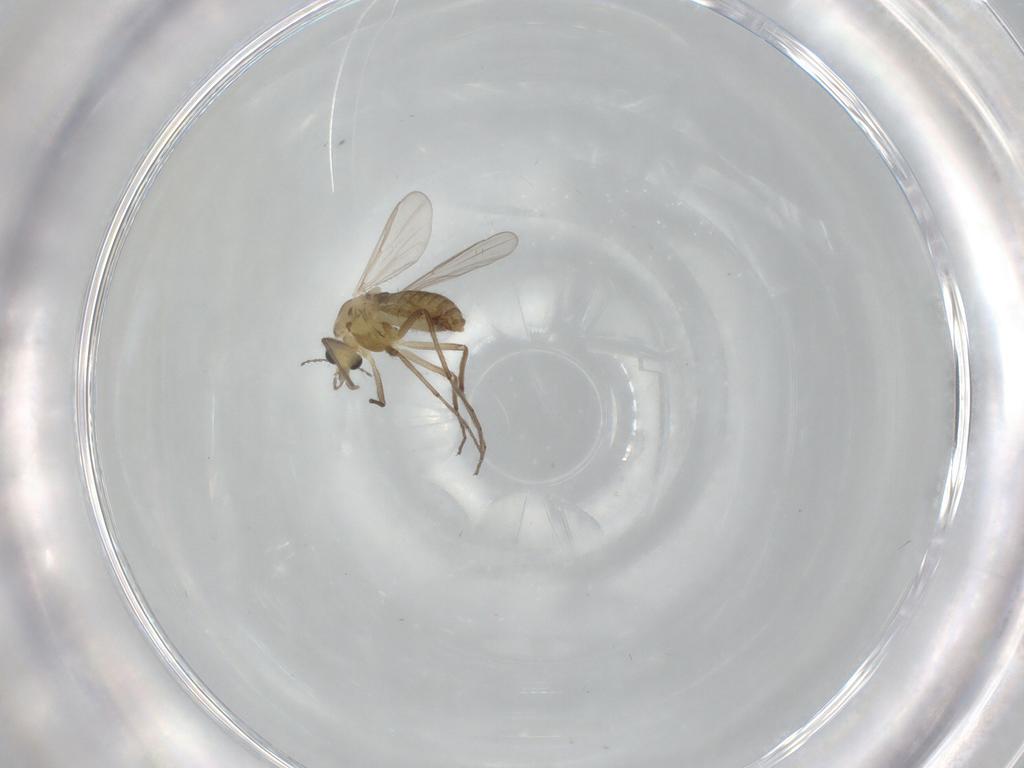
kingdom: Animalia
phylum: Arthropoda
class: Insecta
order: Diptera
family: Chironomidae
